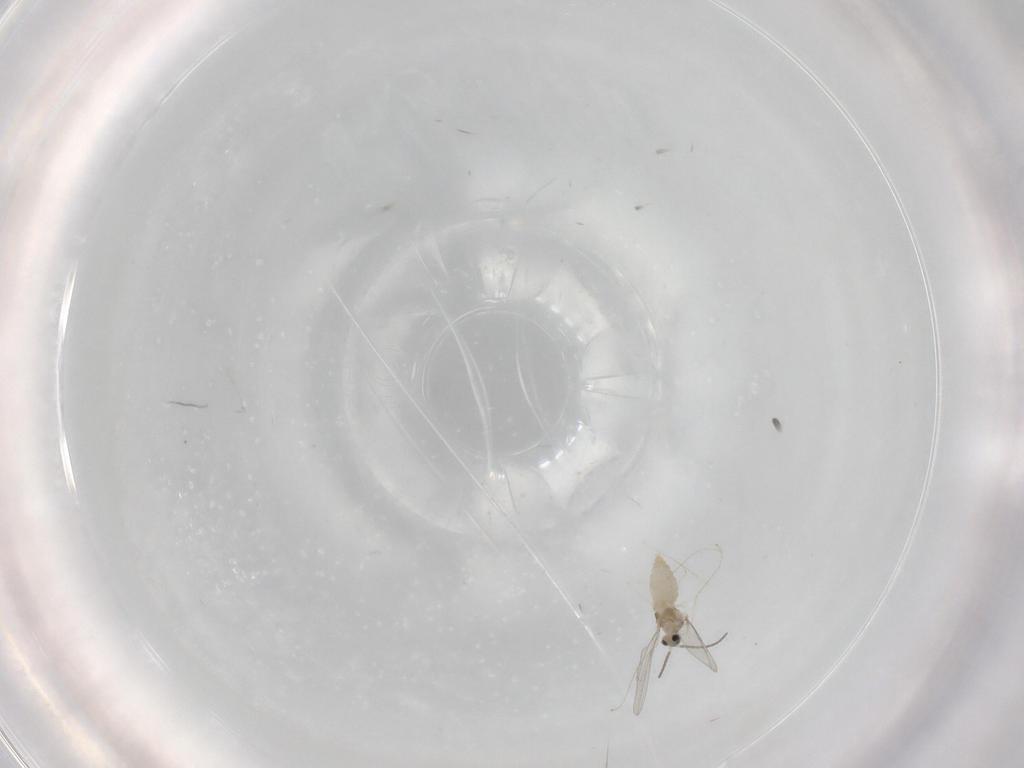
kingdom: Animalia
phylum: Arthropoda
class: Insecta
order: Diptera
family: Cecidomyiidae
